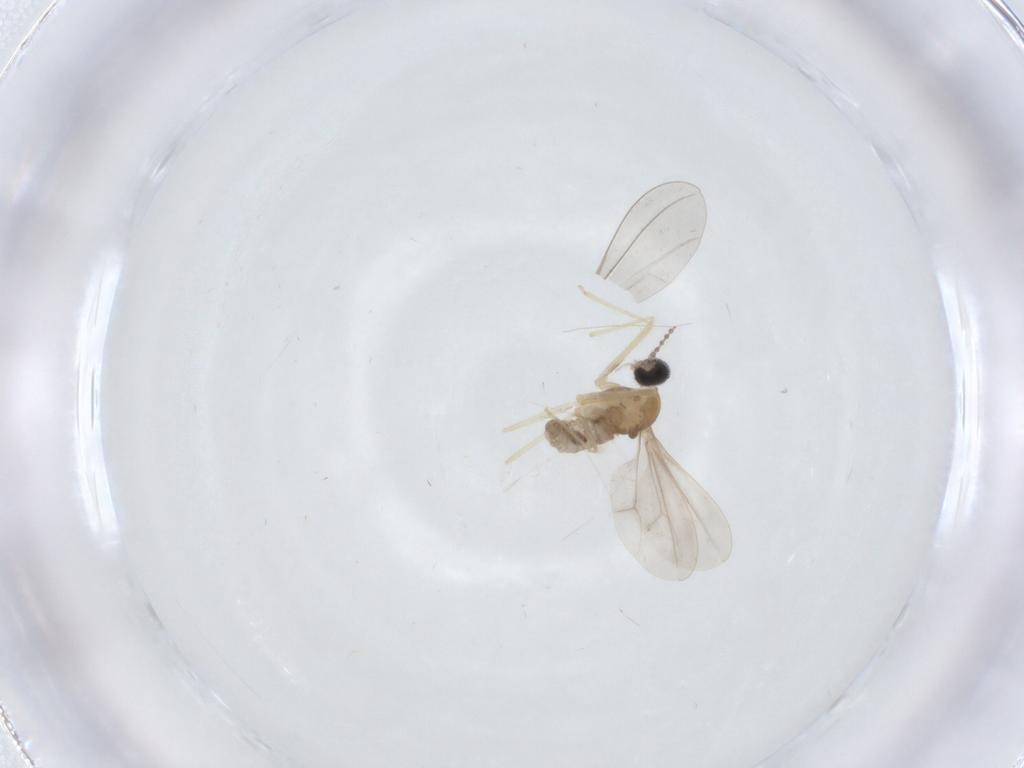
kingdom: Animalia
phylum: Arthropoda
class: Insecta
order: Diptera
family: Cecidomyiidae
